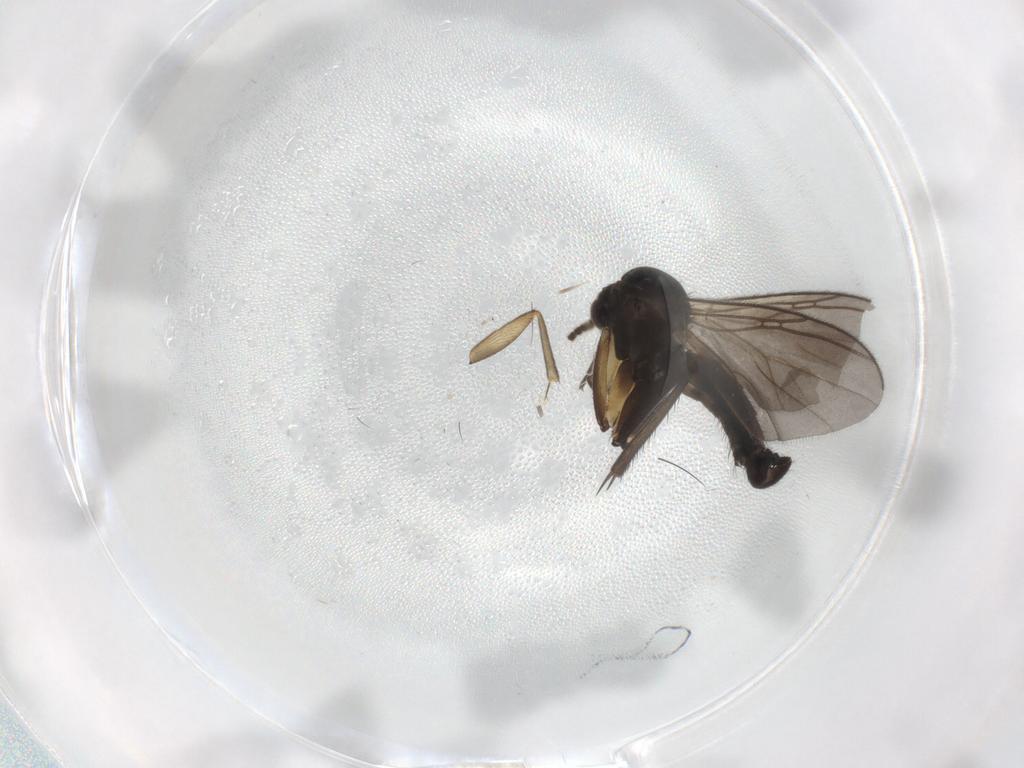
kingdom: Animalia
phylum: Arthropoda
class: Insecta
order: Diptera
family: Mycetophilidae
